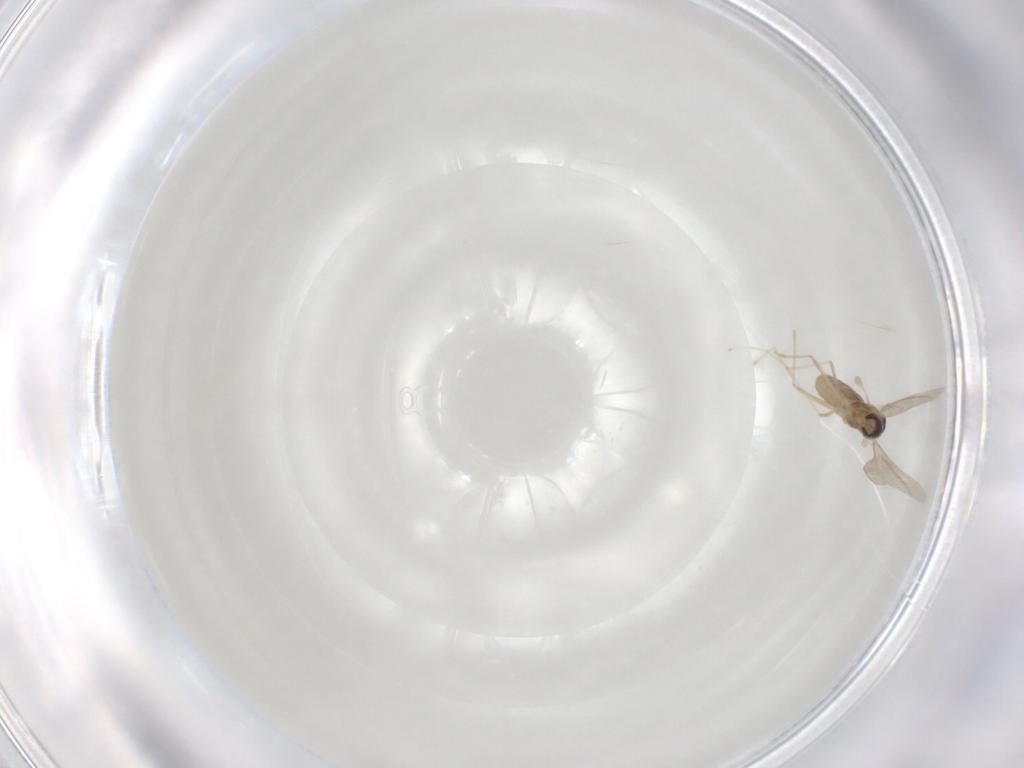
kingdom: Animalia
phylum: Arthropoda
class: Insecta
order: Diptera
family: Cecidomyiidae
